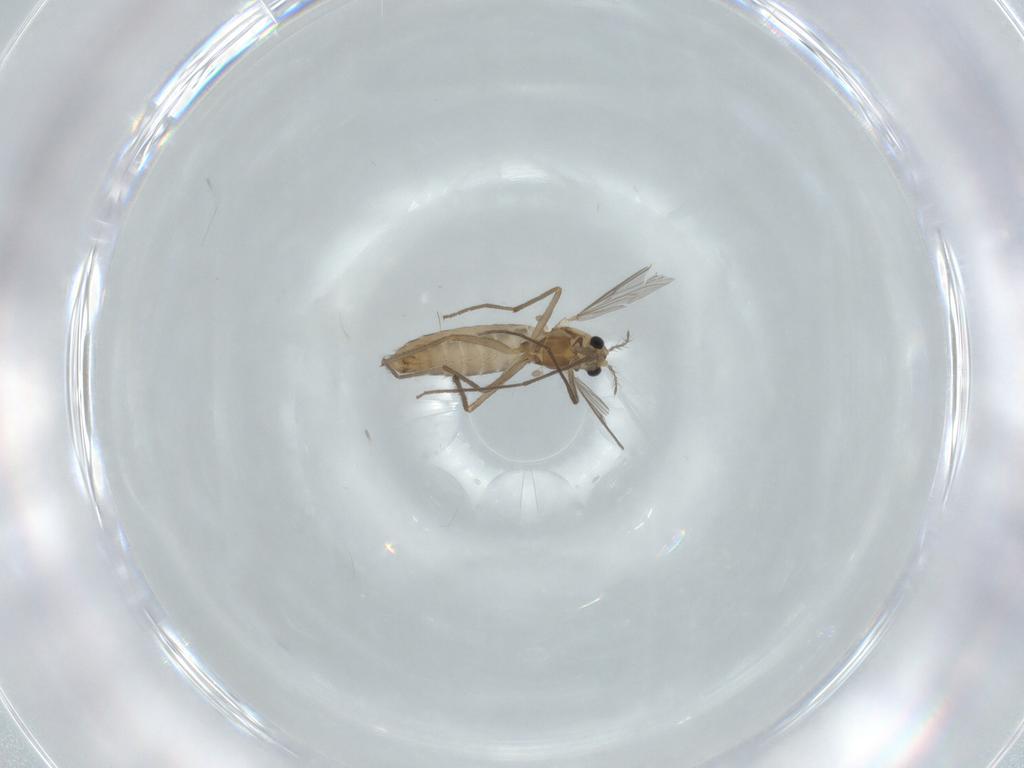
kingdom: Animalia
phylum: Arthropoda
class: Insecta
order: Diptera
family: Chironomidae
